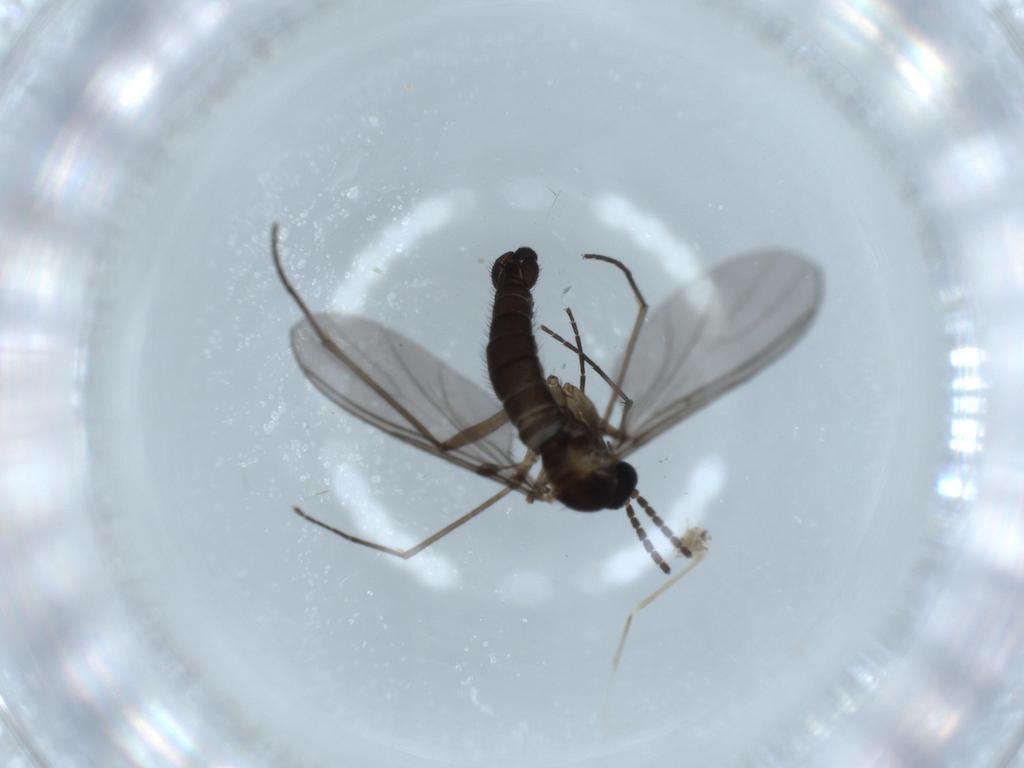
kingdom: Animalia
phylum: Arthropoda
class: Insecta
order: Diptera
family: Sciaridae
